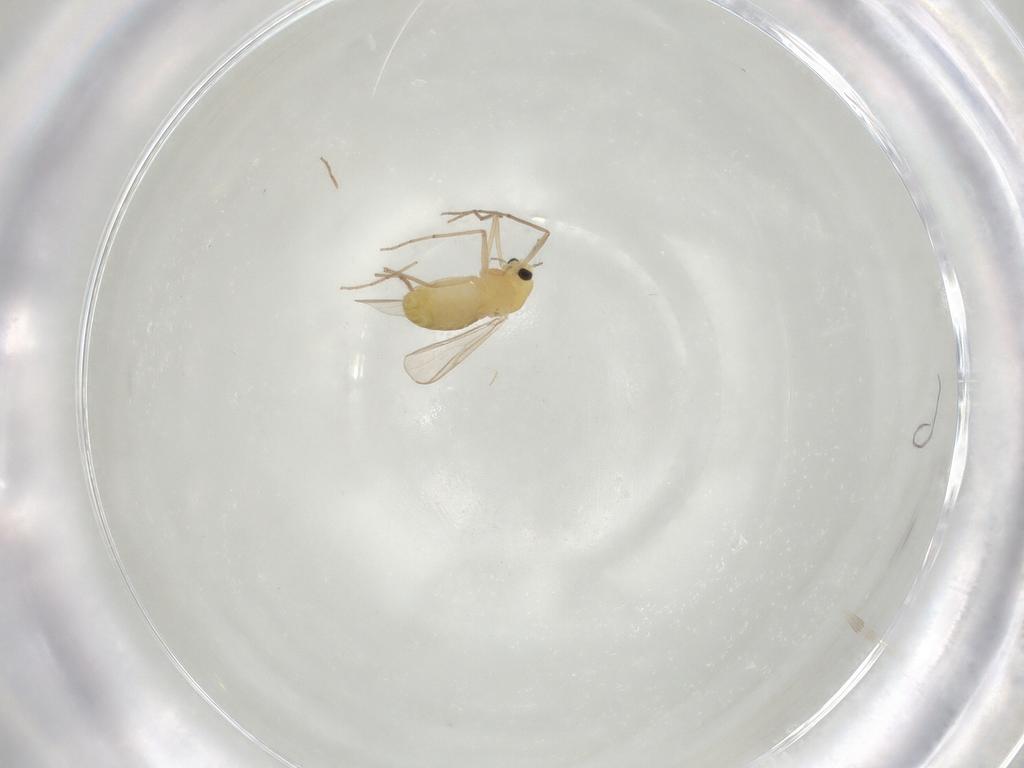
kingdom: Animalia
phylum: Arthropoda
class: Insecta
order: Diptera
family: Chironomidae
